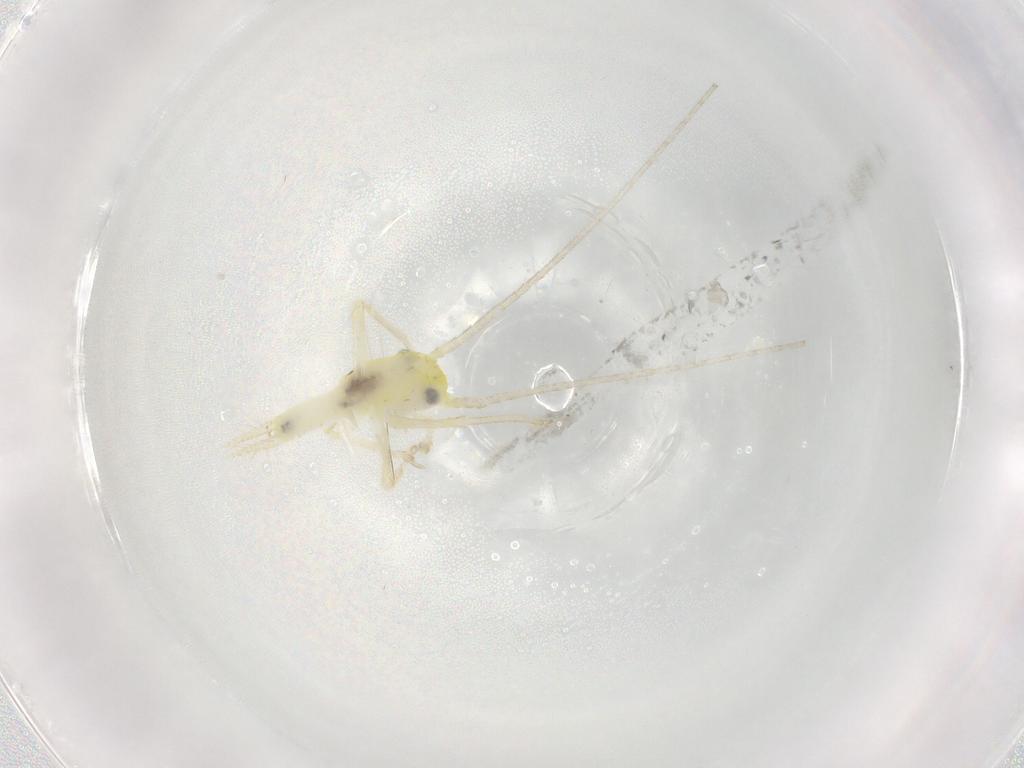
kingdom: Animalia
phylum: Arthropoda
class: Insecta
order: Orthoptera
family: Trigonidiidae
